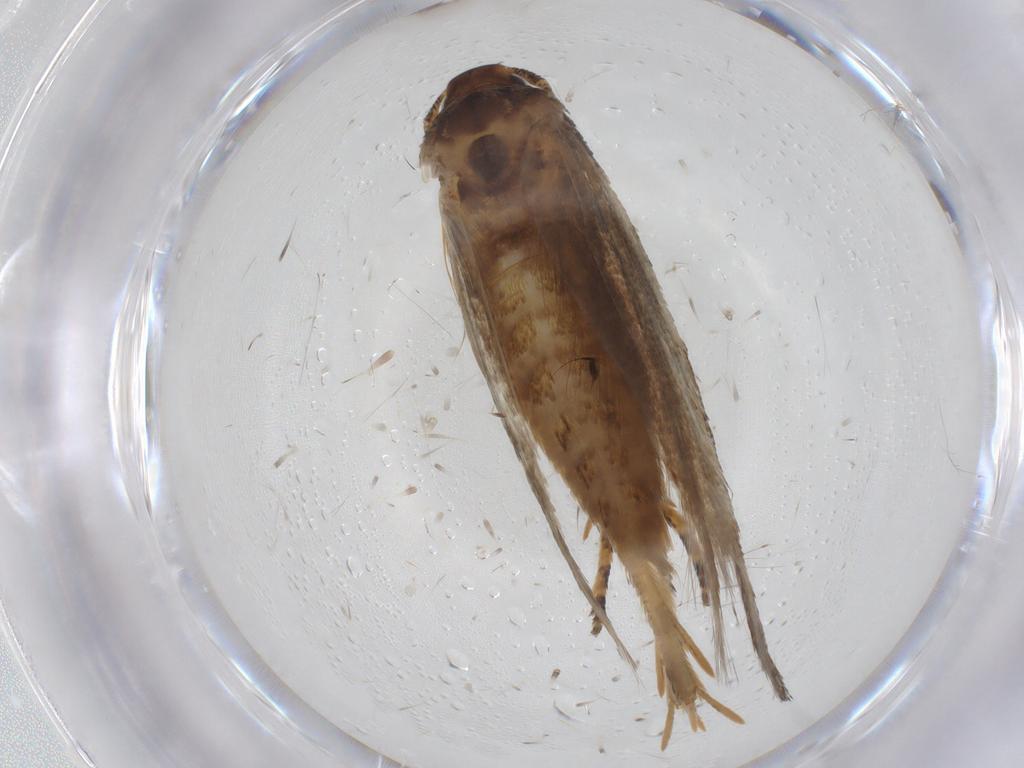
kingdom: Animalia
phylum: Arthropoda
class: Insecta
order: Lepidoptera
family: Momphidae
